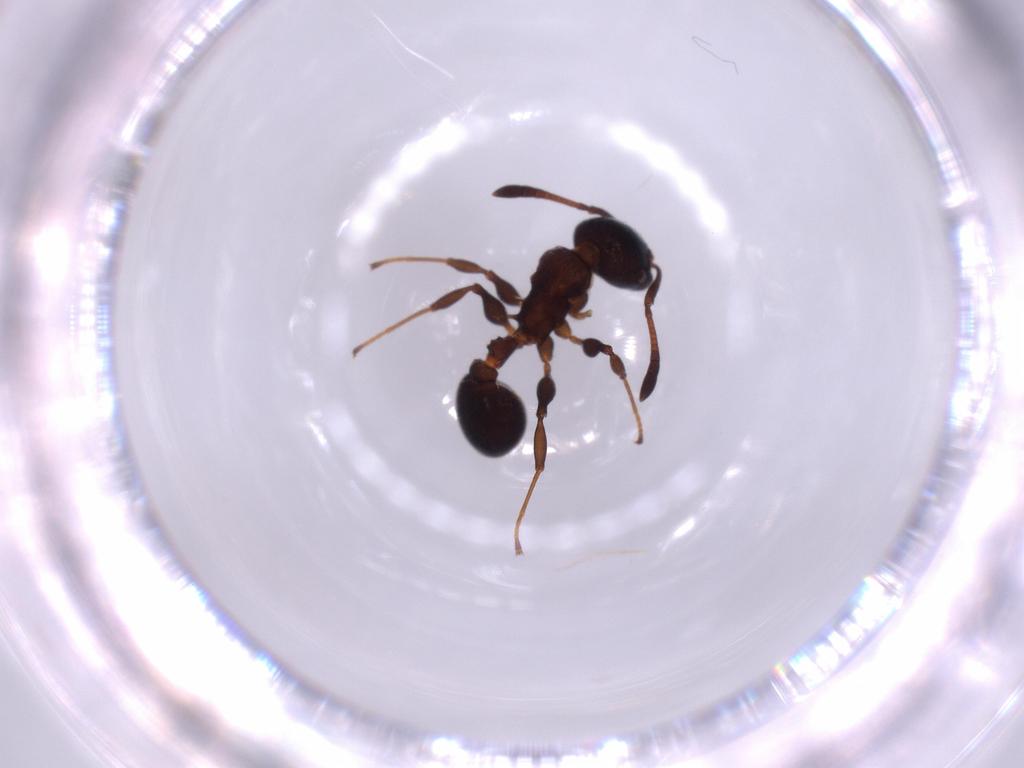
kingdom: Animalia
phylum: Arthropoda
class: Insecta
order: Hymenoptera
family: Formicidae
